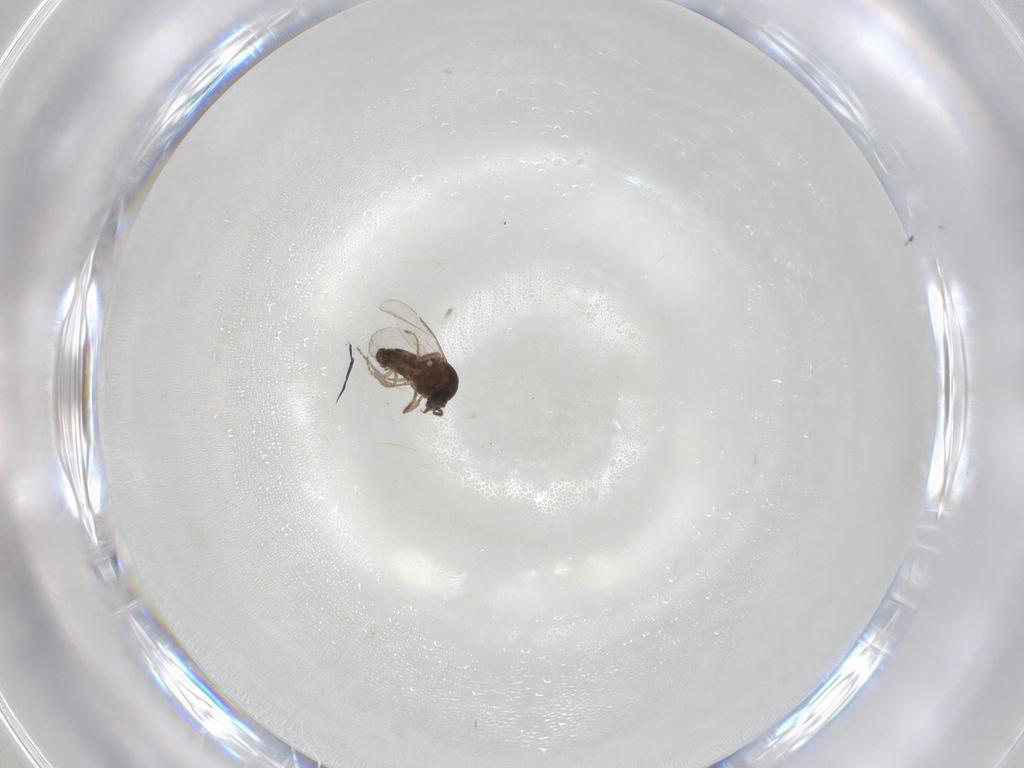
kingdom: Animalia
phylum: Arthropoda
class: Insecta
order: Diptera
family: Ceratopogonidae
